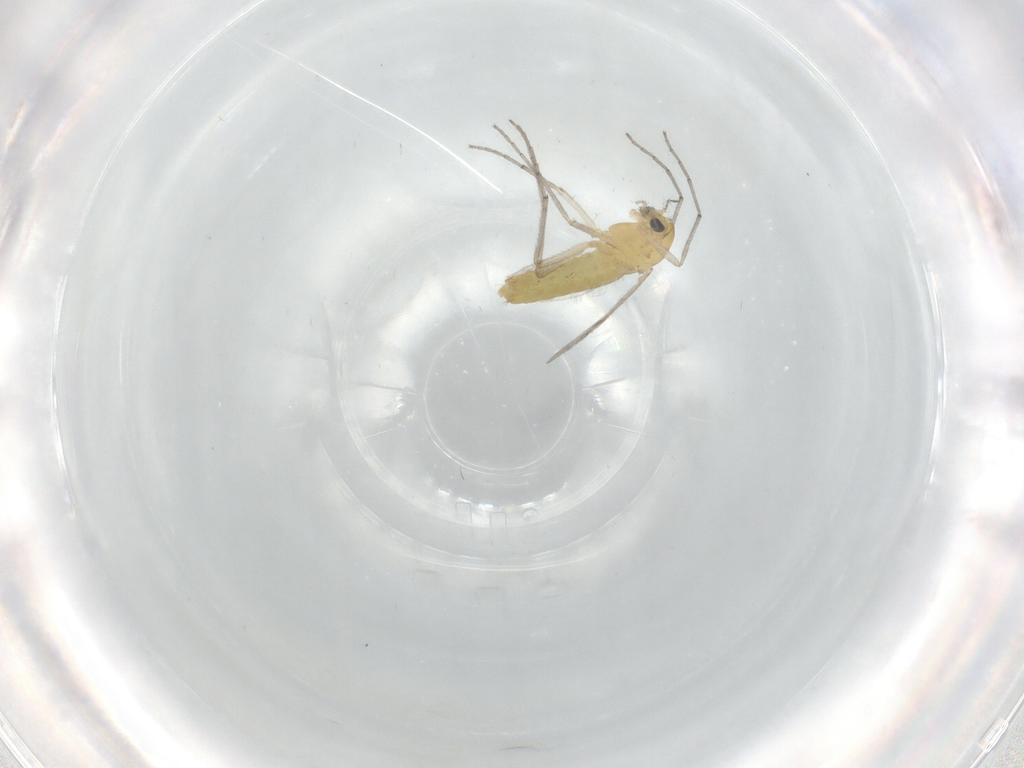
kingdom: Animalia
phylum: Arthropoda
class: Insecta
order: Diptera
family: Chironomidae
